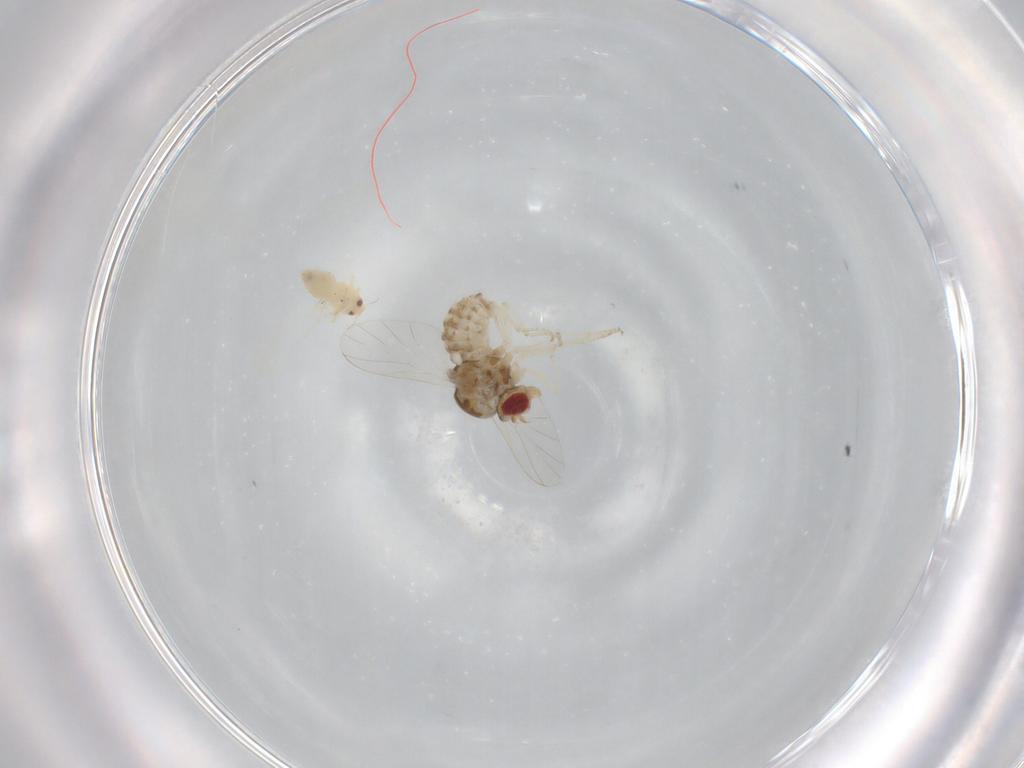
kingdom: Animalia
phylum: Arthropoda
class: Insecta
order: Diptera
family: Bombyliidae
